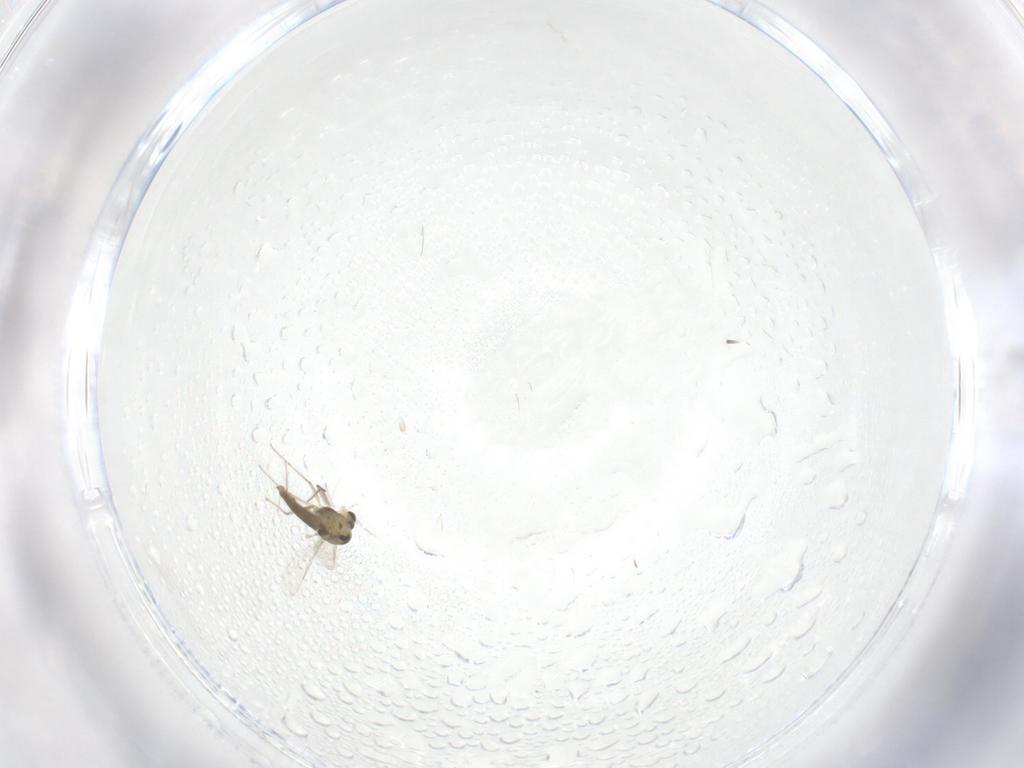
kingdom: Animalia
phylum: Arthropoda
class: Insecta
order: Diptera
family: Chironomidae
